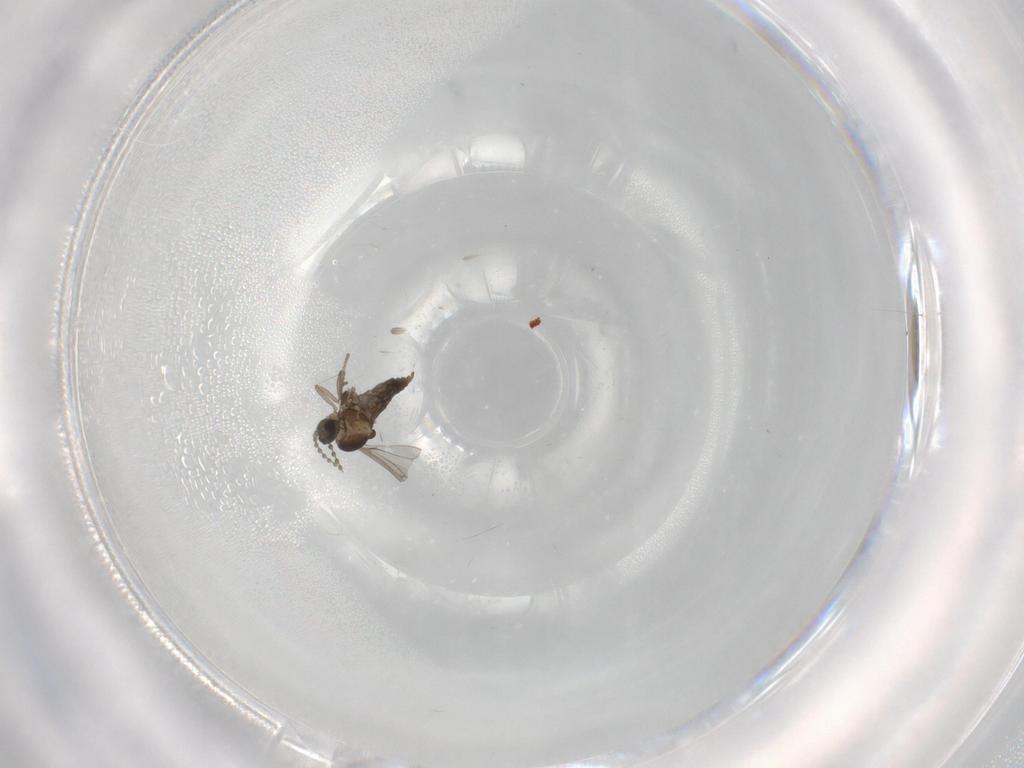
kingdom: Animalia
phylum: Arthropoda
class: Insecta
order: Diptera
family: Cecidomyiidae
